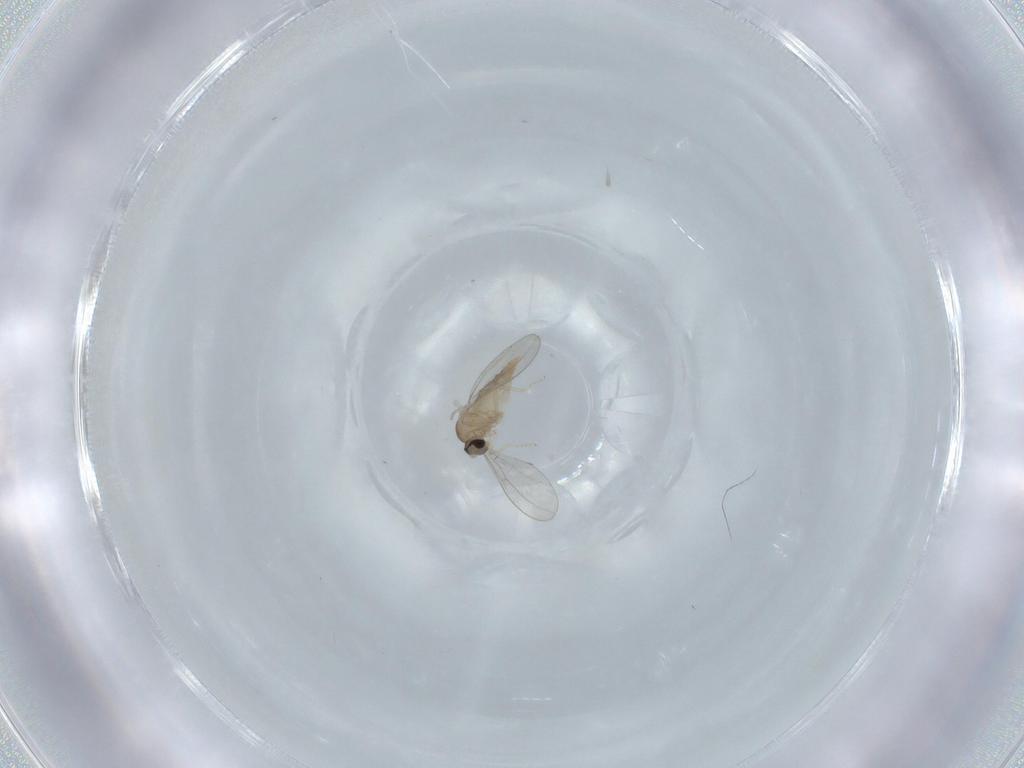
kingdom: Animalia
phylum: Arthropoda
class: Insecta
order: Diptera
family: Cecidomyiidae
